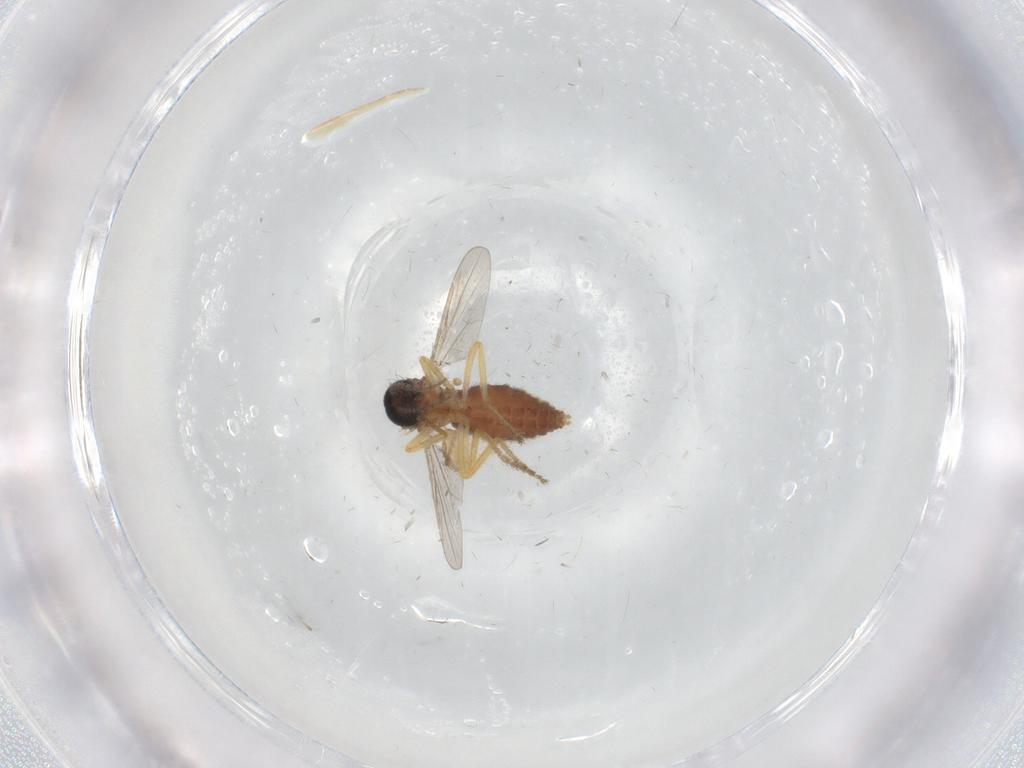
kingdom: Animalia
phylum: Arthropoda
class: Insecta
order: Diptera
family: Ceratopogonidae
